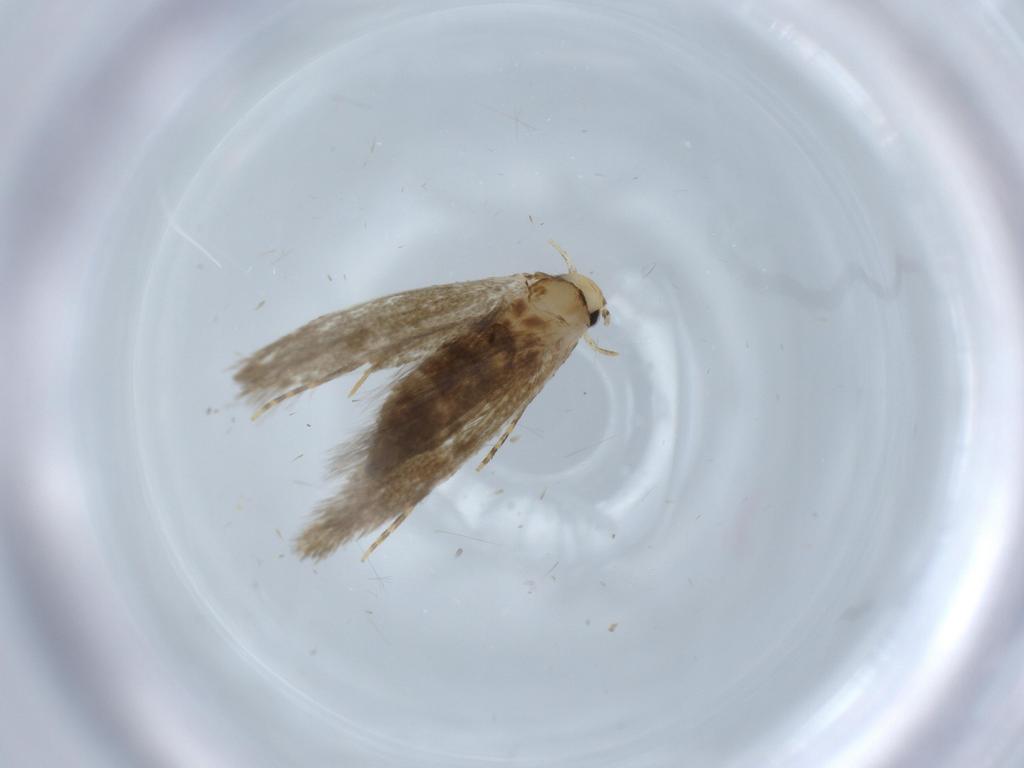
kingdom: Animalia
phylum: Arthropoda
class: Insecta
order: Lepidoptera
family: Tineidae
